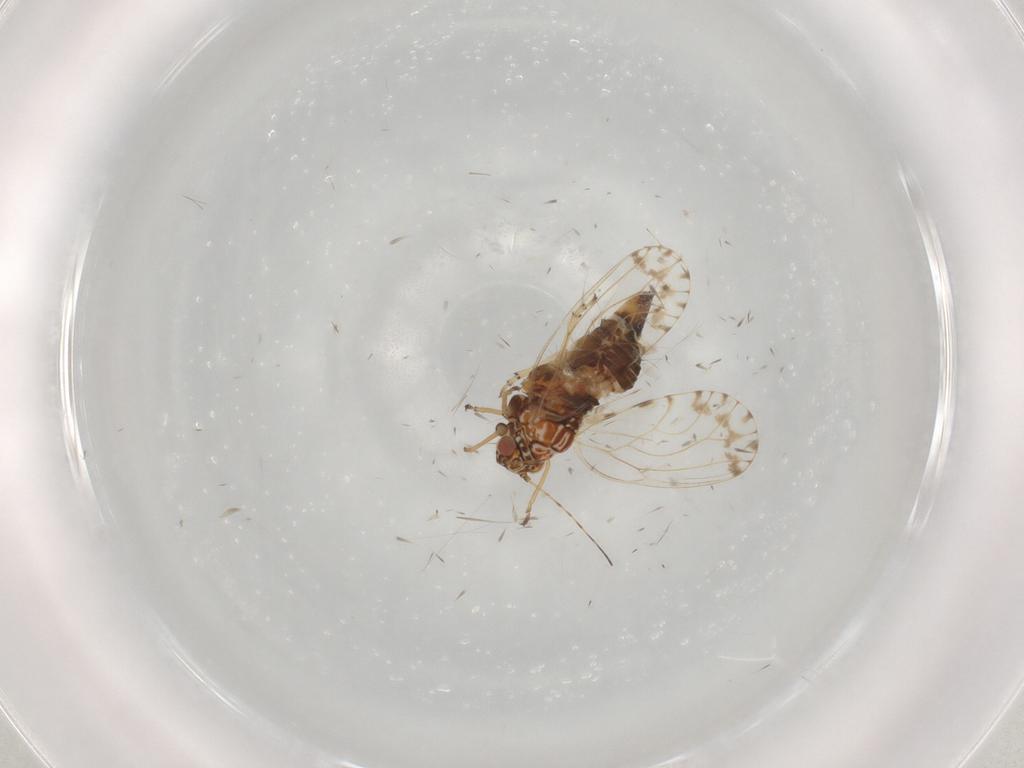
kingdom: Animalia
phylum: Arthropoda
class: Insecta
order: Hemiptera
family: Psyllidae
